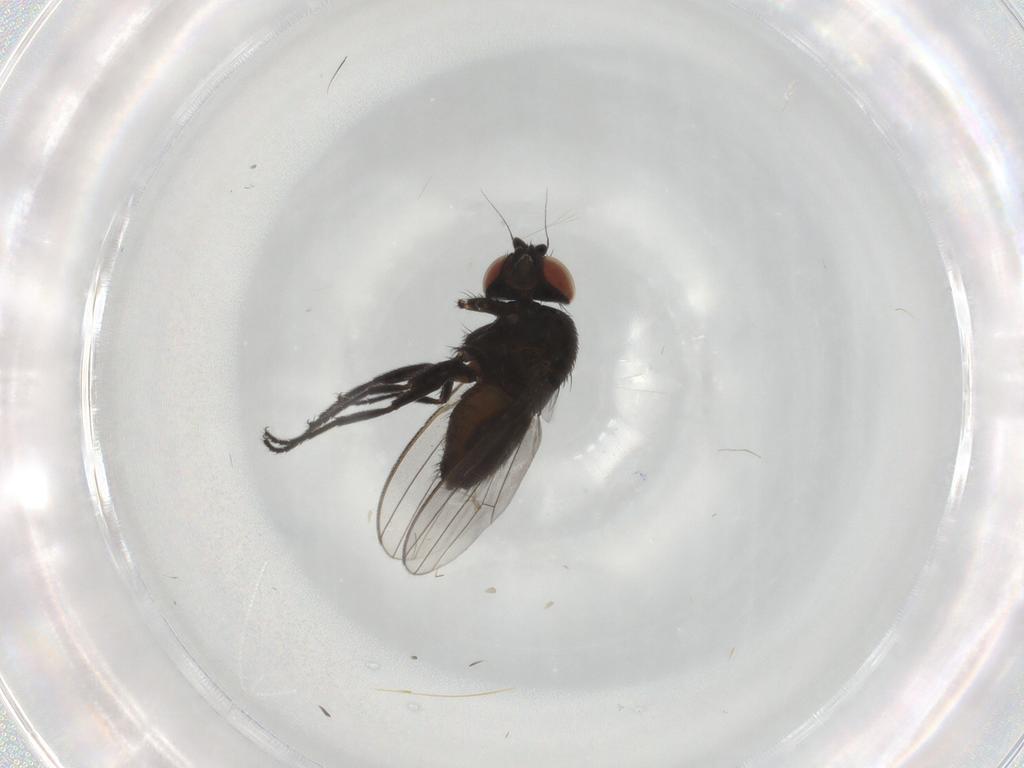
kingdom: Animalia
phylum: Arthropoda
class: Insecta
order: Diptera
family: Milichiidae
